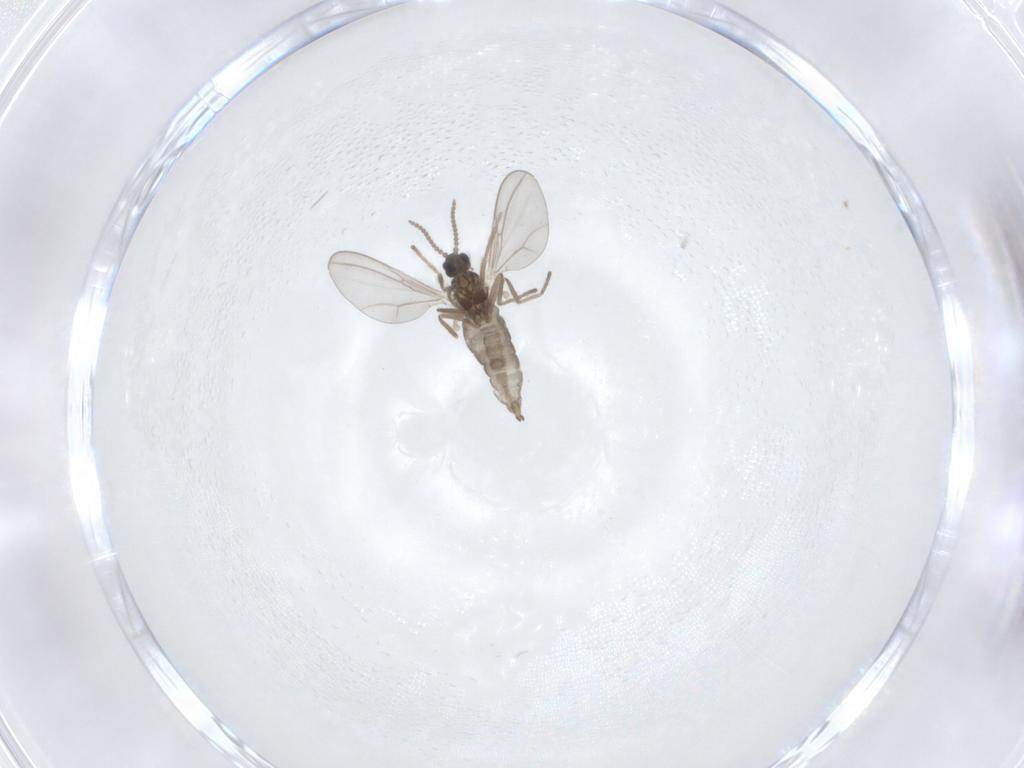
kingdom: Animalia
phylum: Arthropoda
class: Insecta
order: Diptera
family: Cecidomyiidae
